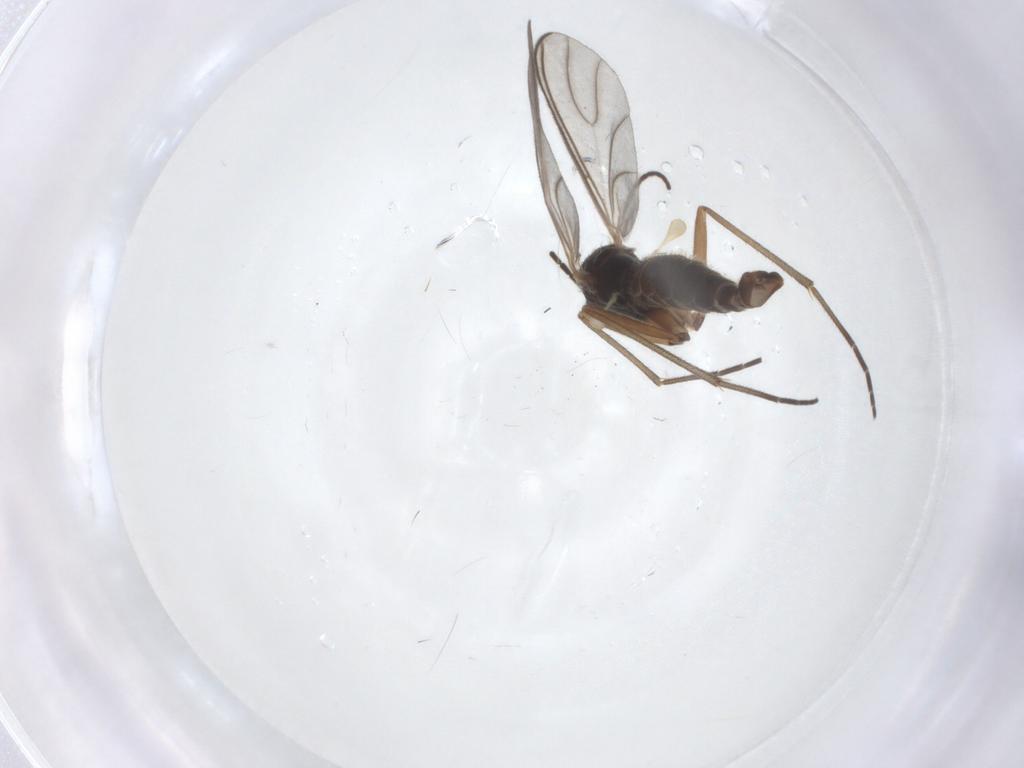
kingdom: Animalia
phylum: Arthropoda
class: Insecta
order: Diptera
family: Sciaridae
